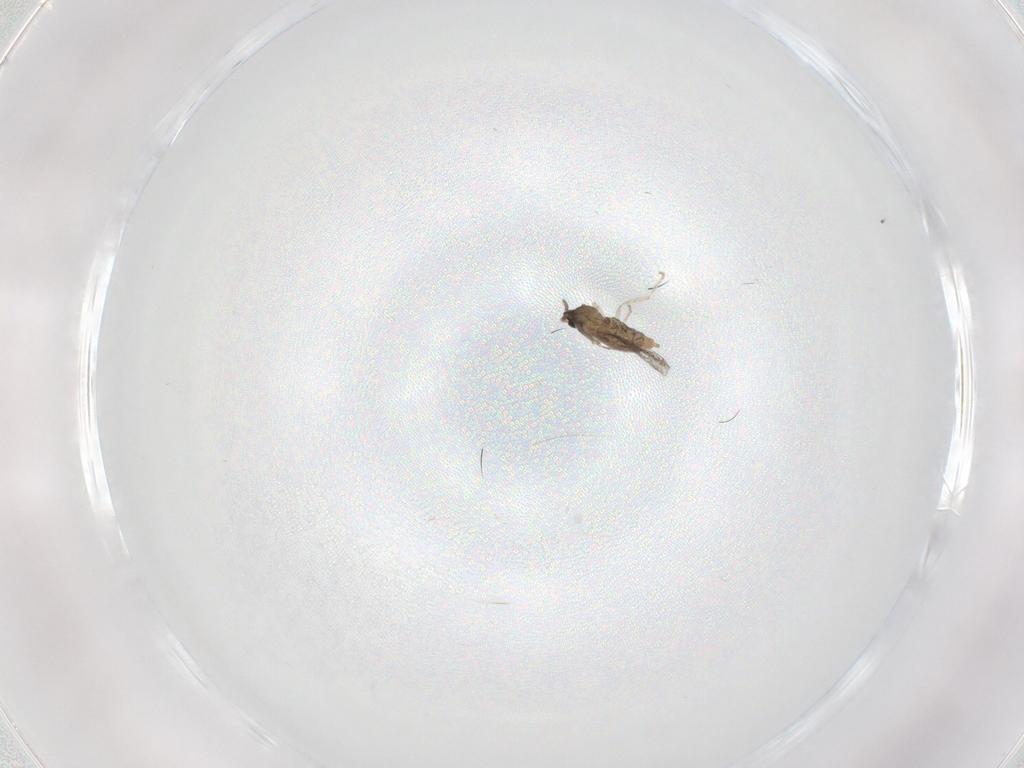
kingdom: Animalia
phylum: Arthropoda
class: Insecta
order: Diptera
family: Cecidomyiidae
